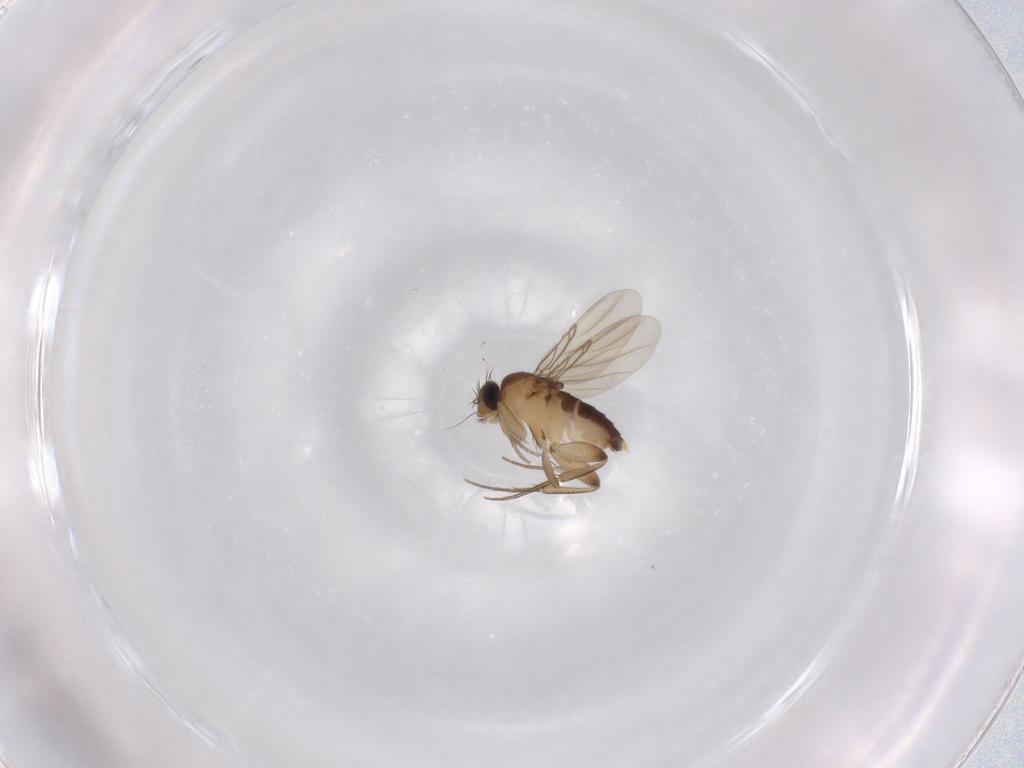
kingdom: Animalia
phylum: Arthropoda
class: Insecta
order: Diptera
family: Phoridae
